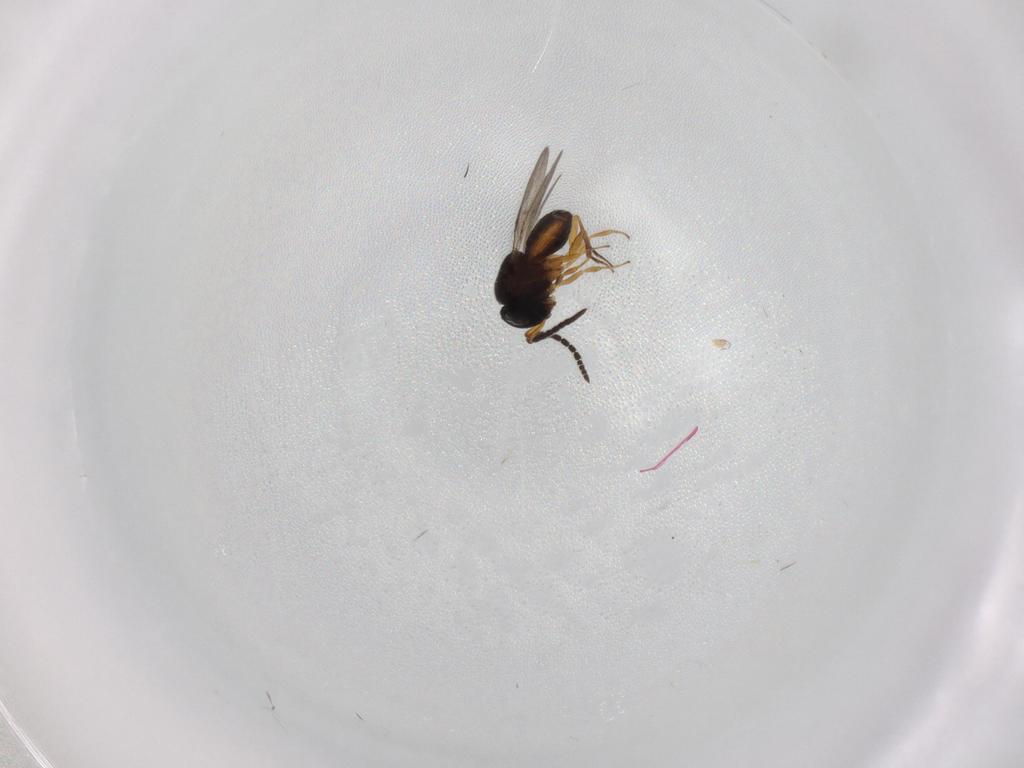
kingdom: Animalia
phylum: Arthropoda
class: Insecta
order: Coleoptera
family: Curculionidae
